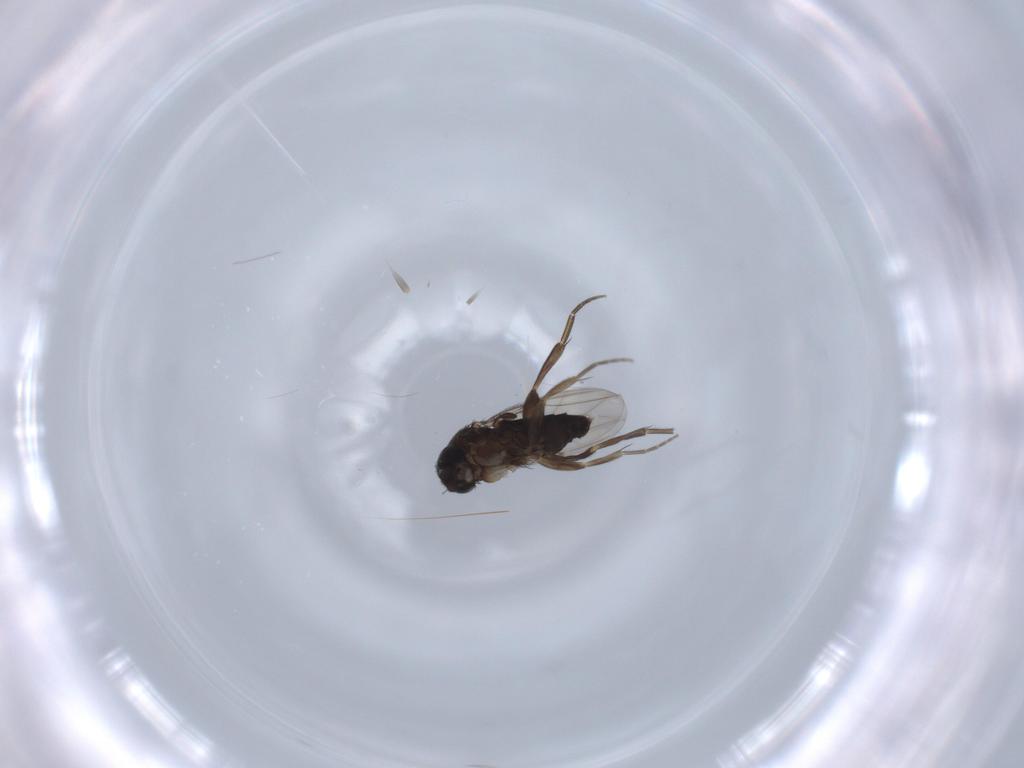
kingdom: Animalia
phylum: Arthropoda
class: Insecta
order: Diptera
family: Phoridae
